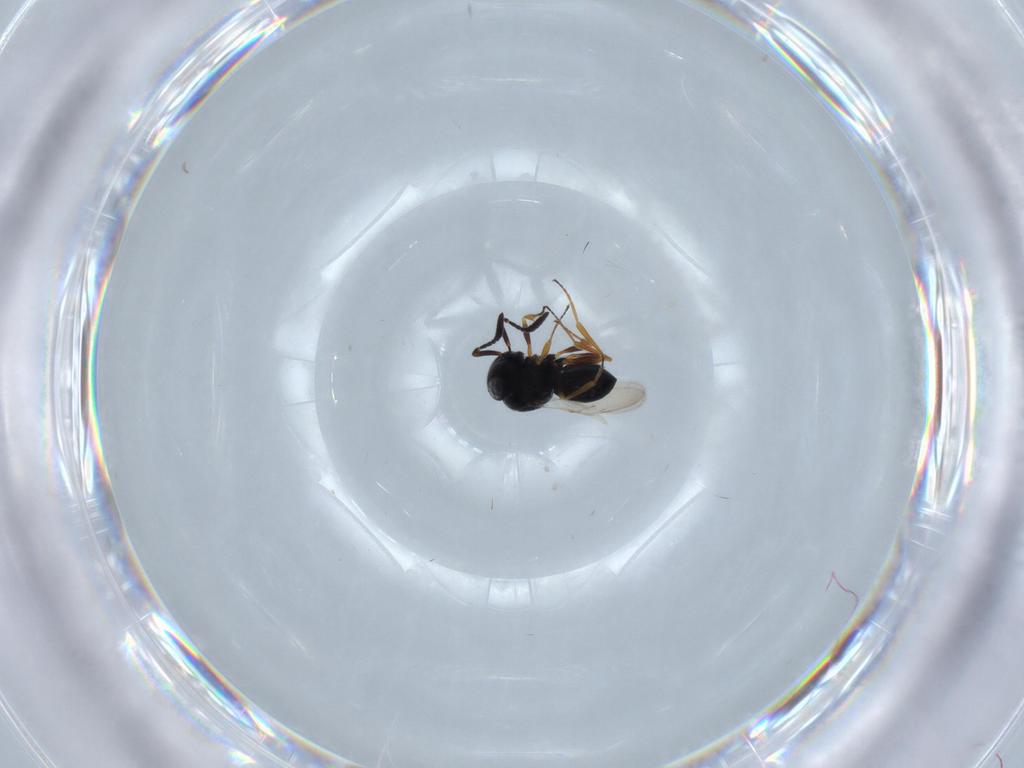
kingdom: Animalia
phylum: Arthropoda
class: Insecta
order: Hymenoptera
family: Scelionidae
